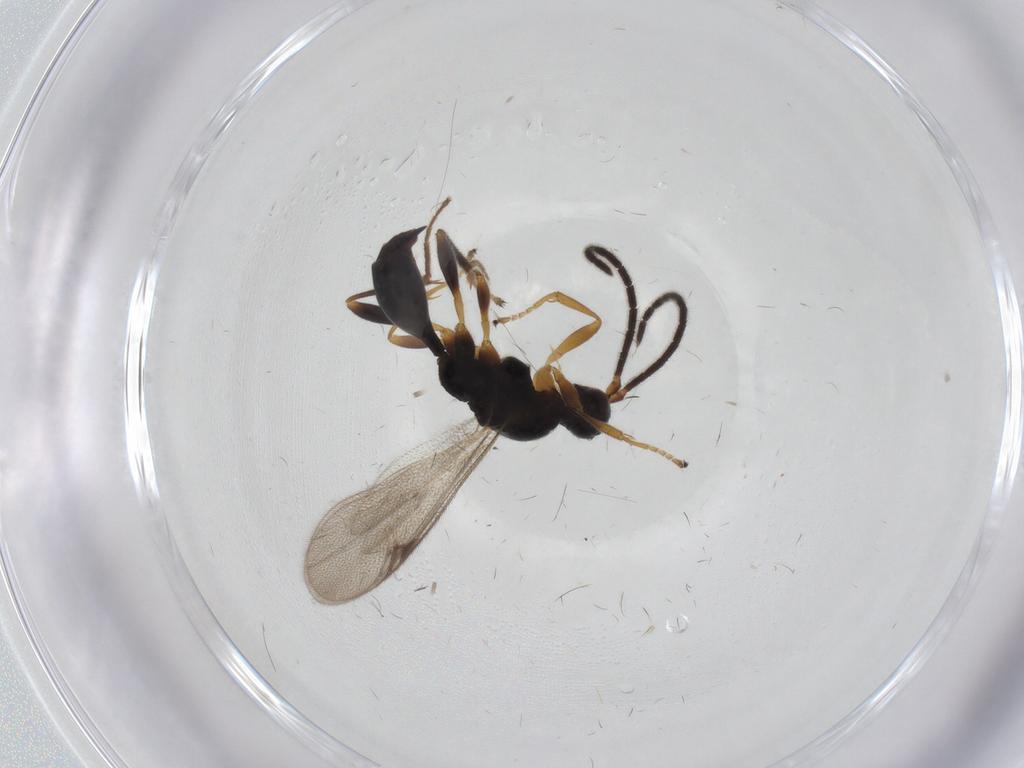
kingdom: Animalia
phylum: Arthropoda
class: Insecta
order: Hymenoptera
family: Proctotrupidae
